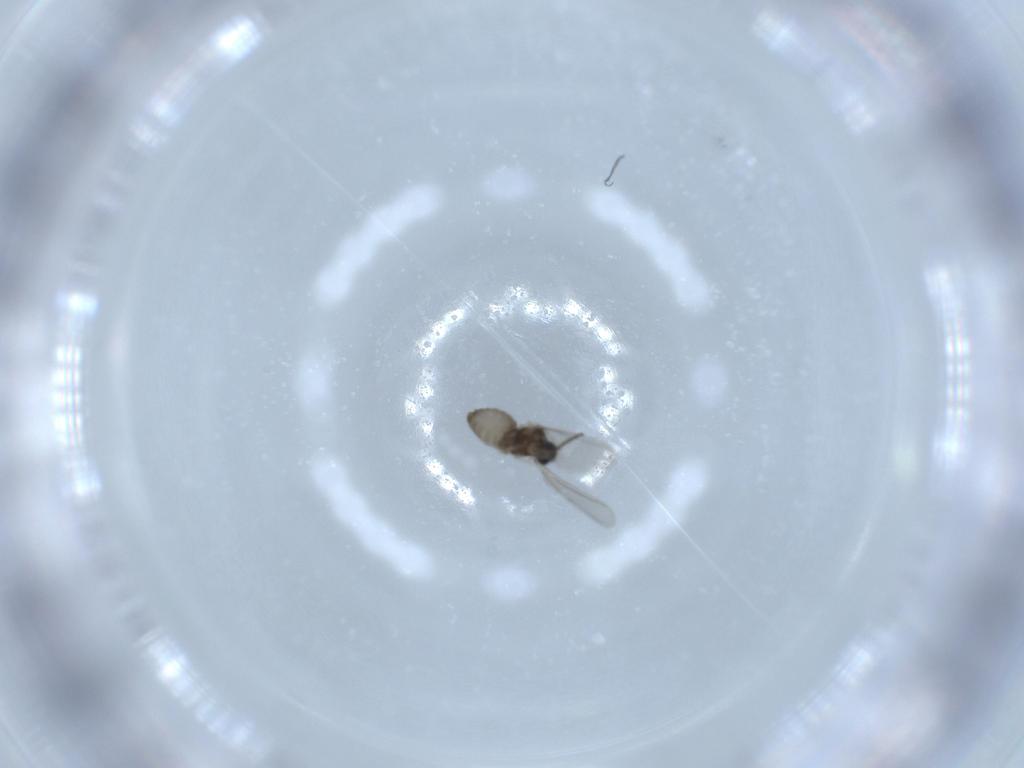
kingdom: Animalia
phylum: Arthropoda
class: Insecta
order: Diptera
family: Cecidomyiidae
